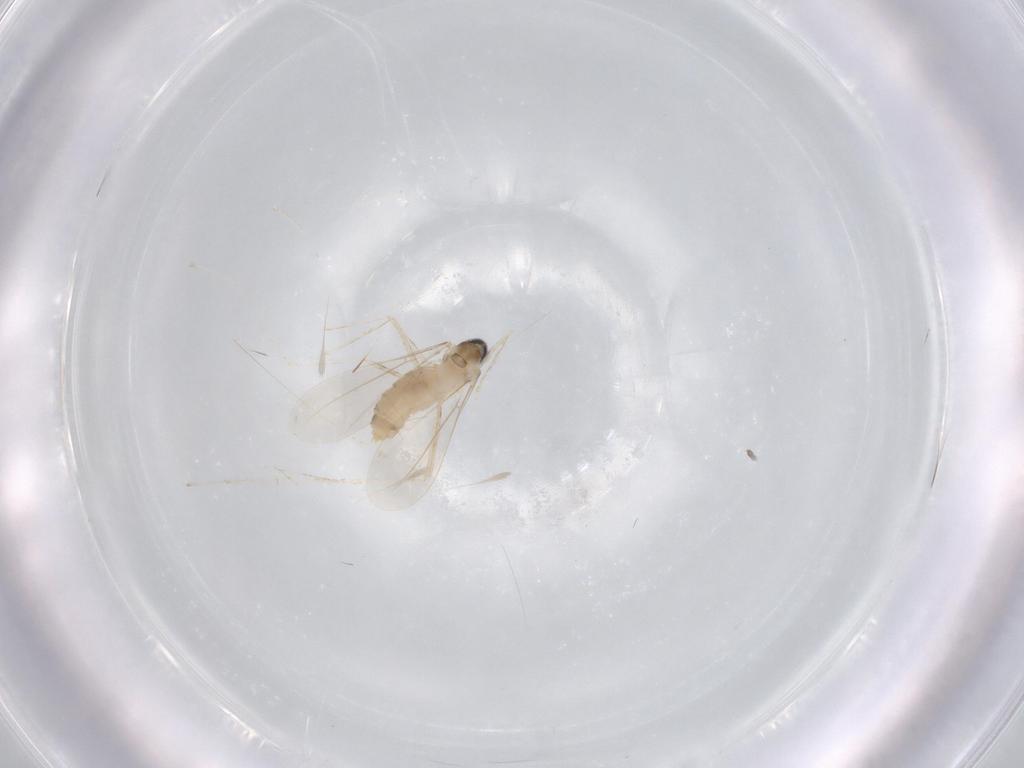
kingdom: Animalia
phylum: Arthropoda
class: Insecta
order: Diptera
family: Cecidomyiidae
